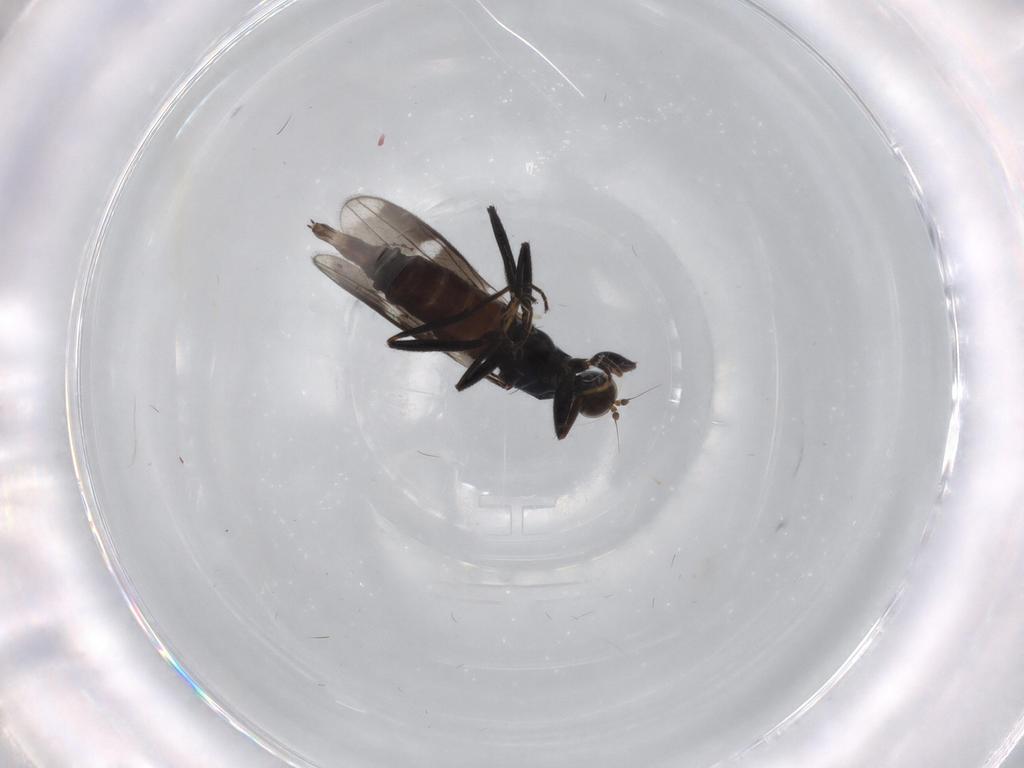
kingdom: Animalia
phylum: Arthropoda
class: Insecta
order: Diptera
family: Hybotidae
